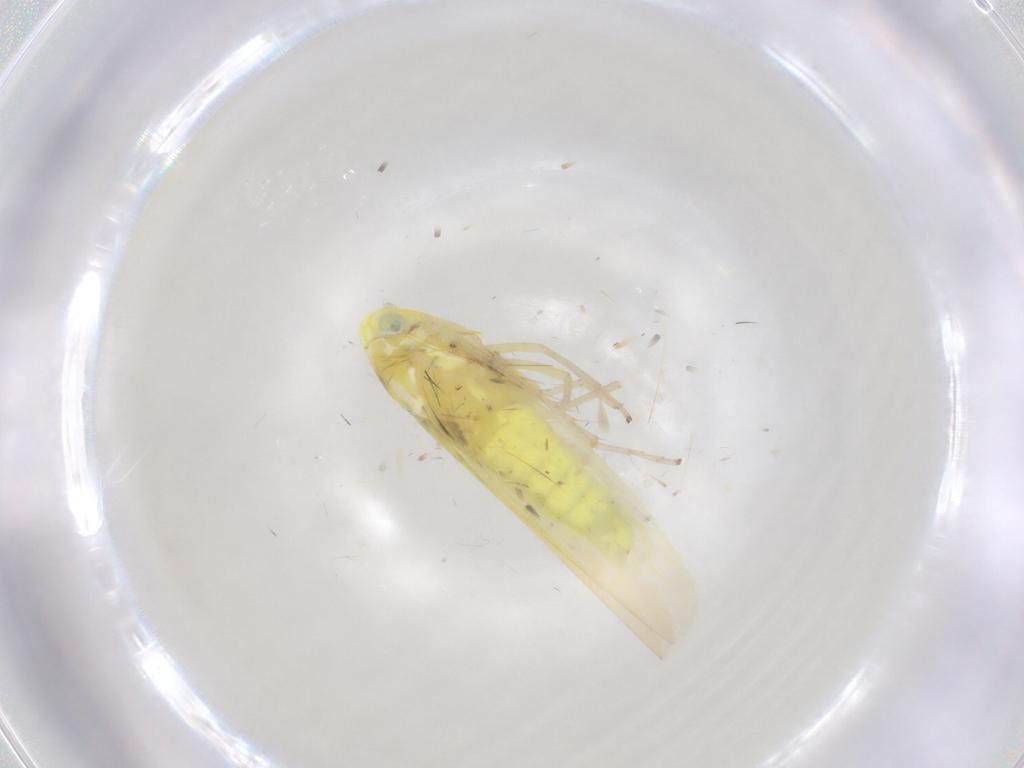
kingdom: Animalia
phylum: Arthropoda
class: Insecta
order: Hemiptera
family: Cicadellidae
